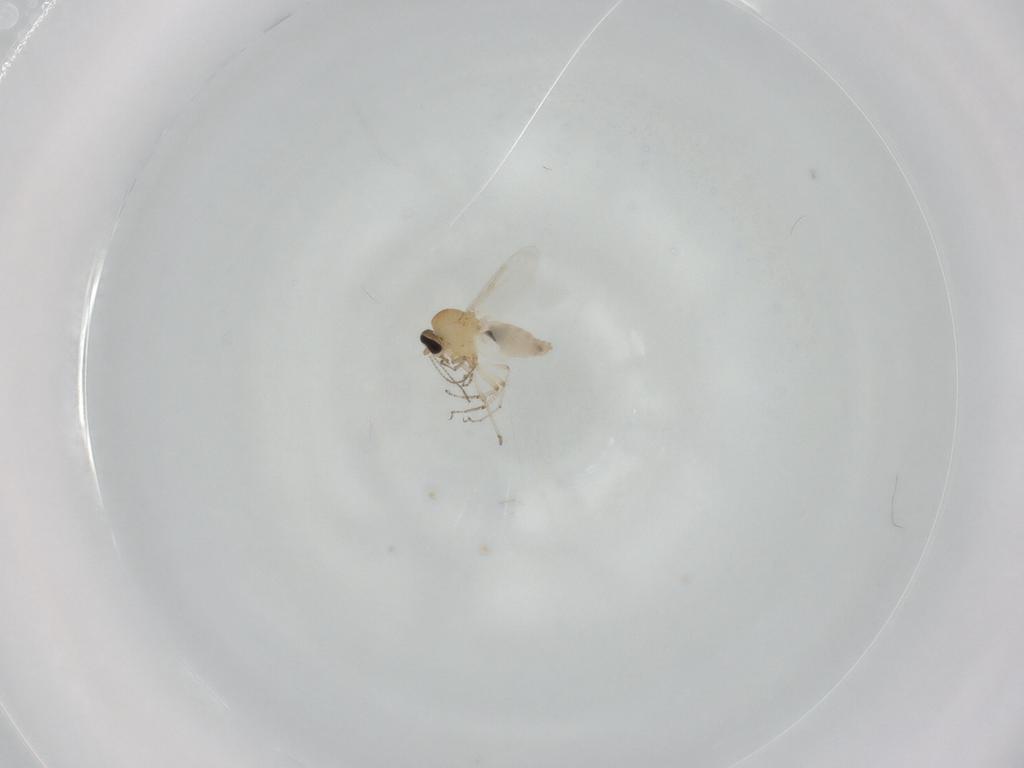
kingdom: Animalia
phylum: Arthropoda
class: Insecta
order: Diptera
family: Ceratopogonidae
